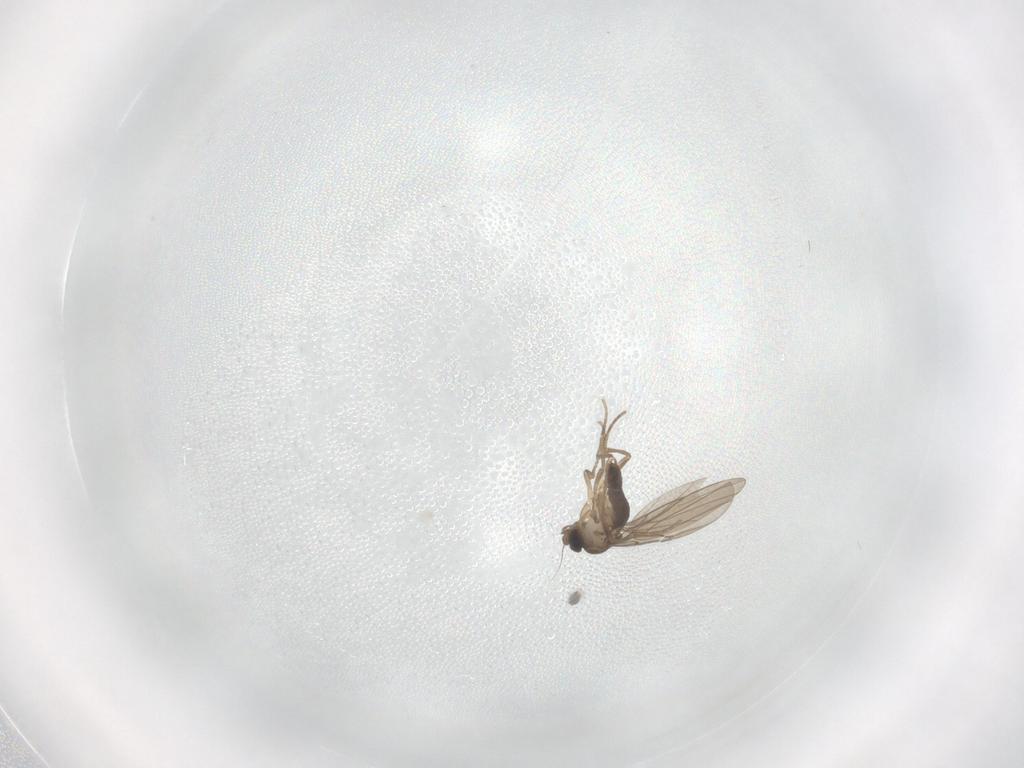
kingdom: Animalia
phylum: Arthropoda
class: Insecta
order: Diptera
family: Phoridae
